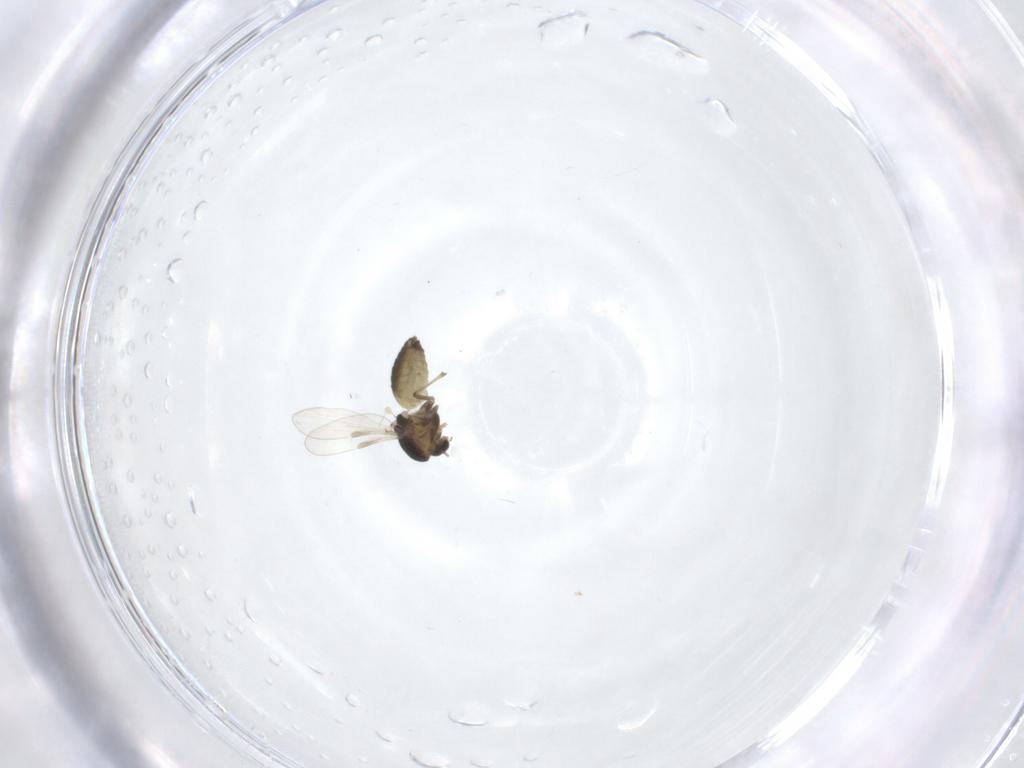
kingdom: Animalia
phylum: Arthropoda
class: Insecta
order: Diptera
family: Chironomidae
